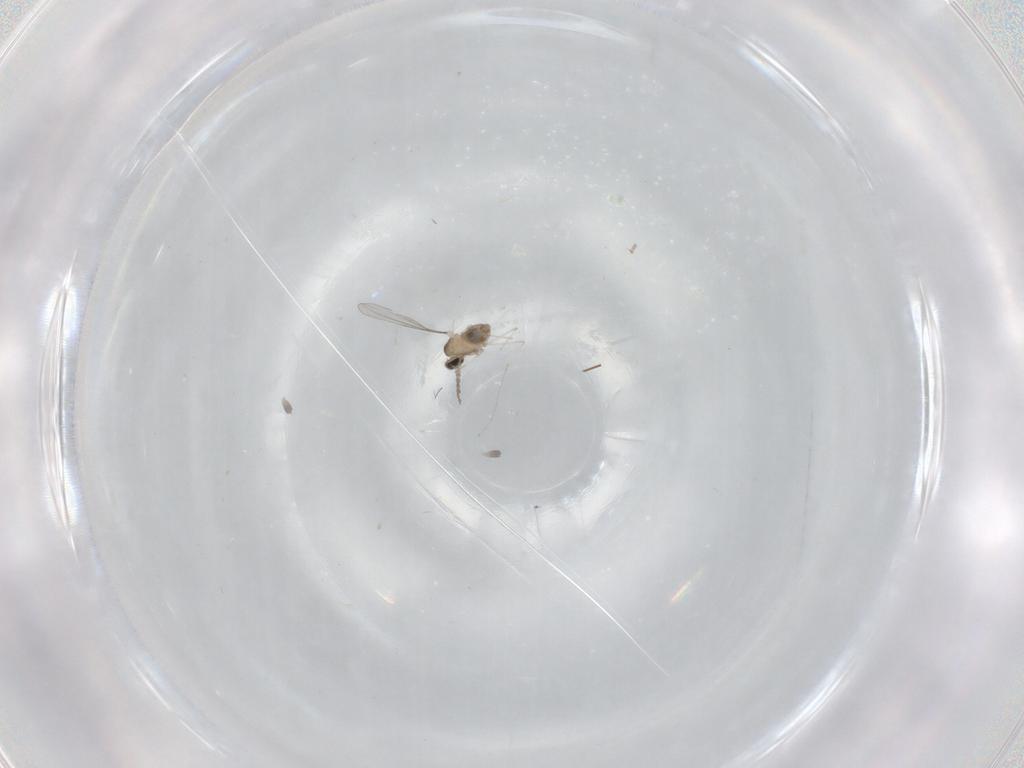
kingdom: Animalia
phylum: Arthropoda
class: Insecta
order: Diptera
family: Cecidomyiidae
